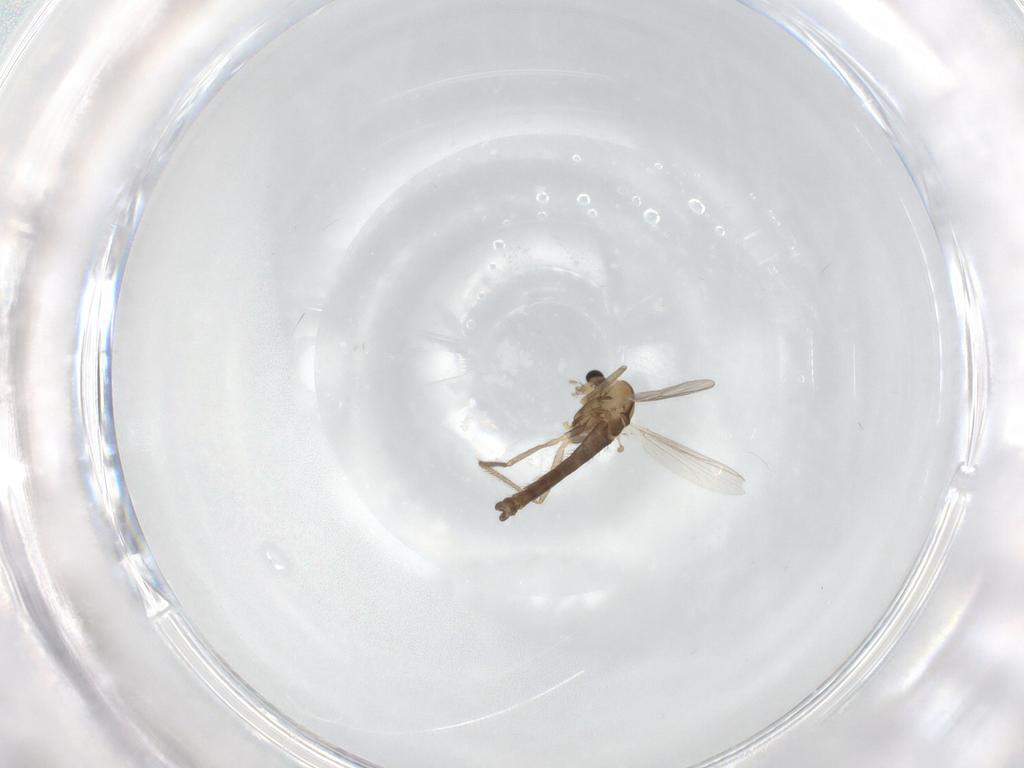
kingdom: Animalia
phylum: Arthropoda
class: Insecta
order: Diptera
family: Chironomidae
